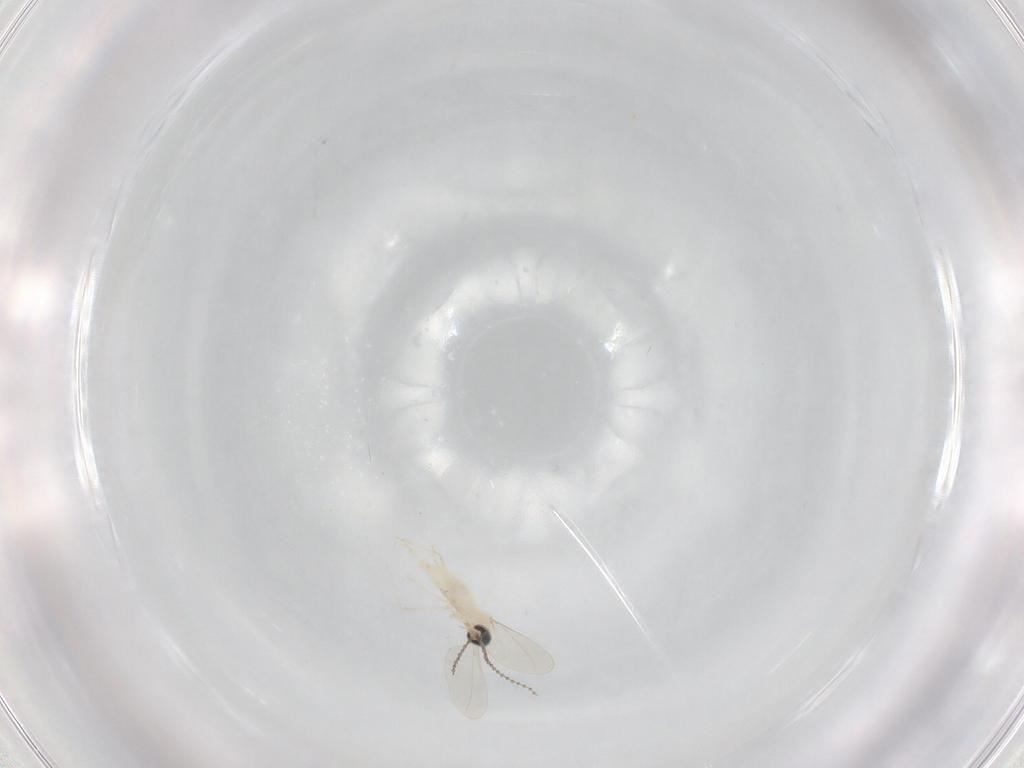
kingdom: Animalia
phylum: Arthropoda
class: Insecta
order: Diptera
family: Cecidomyiidae
